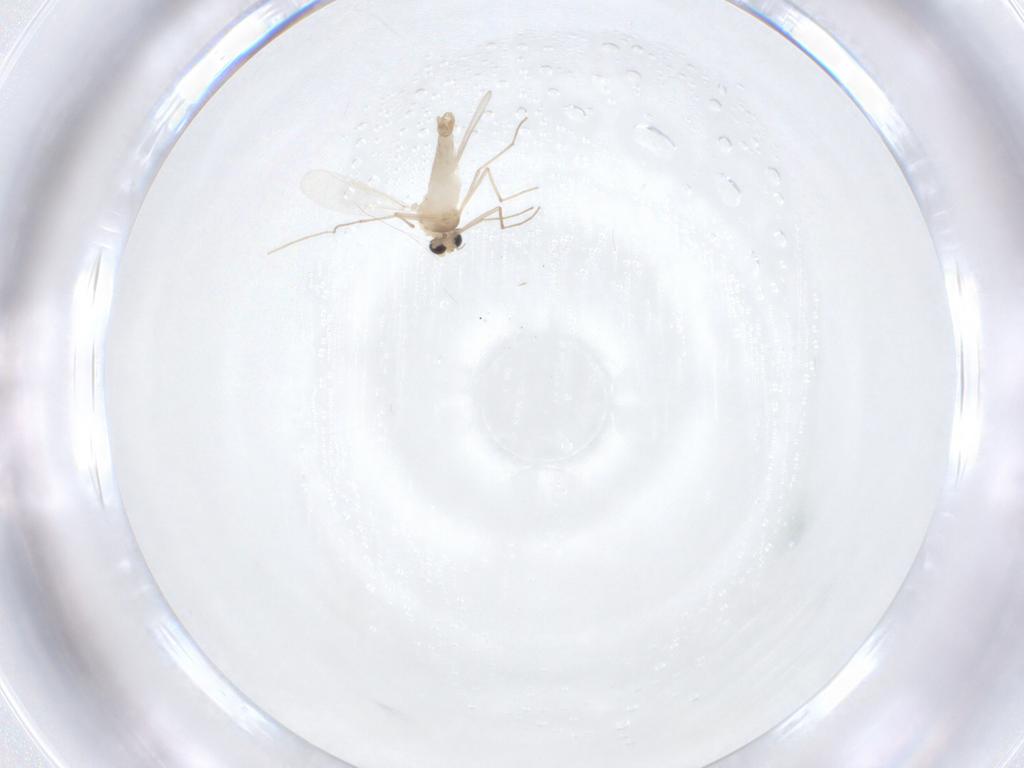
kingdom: Animalia
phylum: Arthropoda
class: Insecta
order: Diptera
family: Chironomidae
